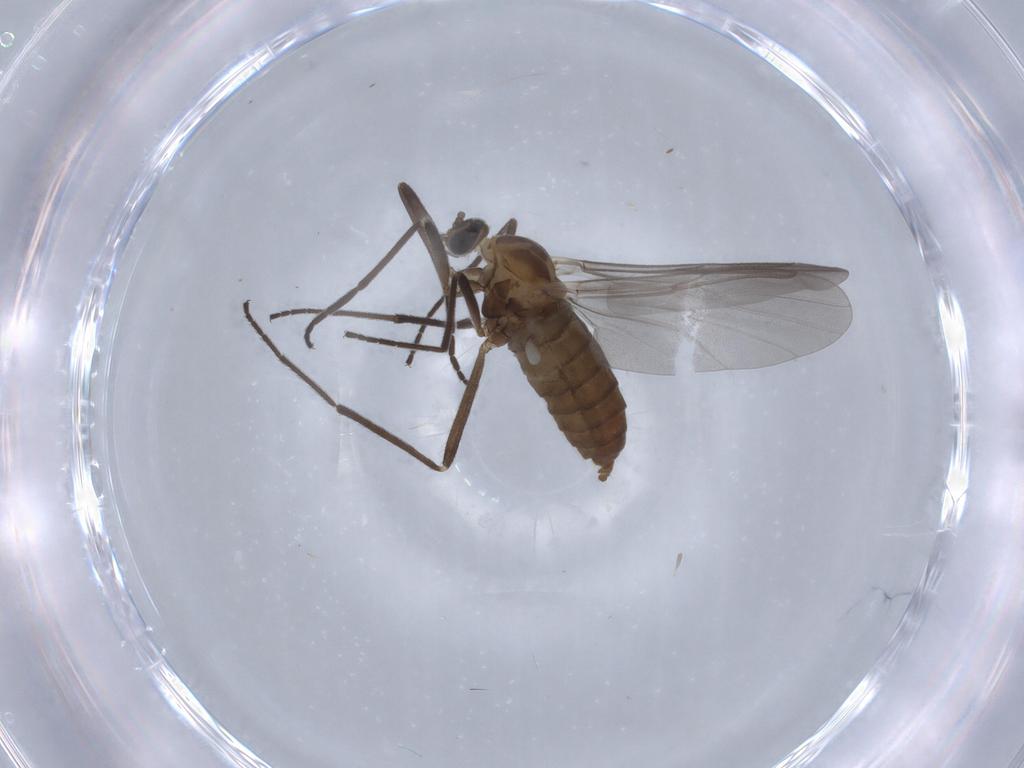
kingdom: Animalia
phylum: Arthropoda
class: Insecta
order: Diptera
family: Cecidomyiidae
